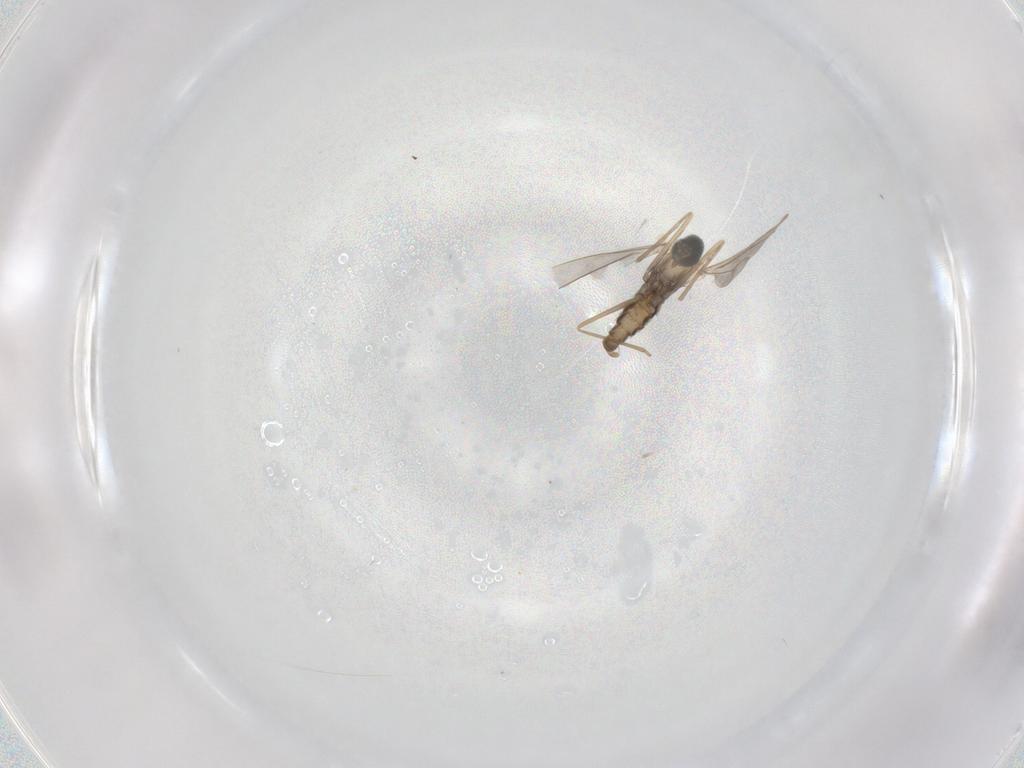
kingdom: Animalia
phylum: Arthropoda
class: Insecta
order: Diptera
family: Cecidomyiidae
